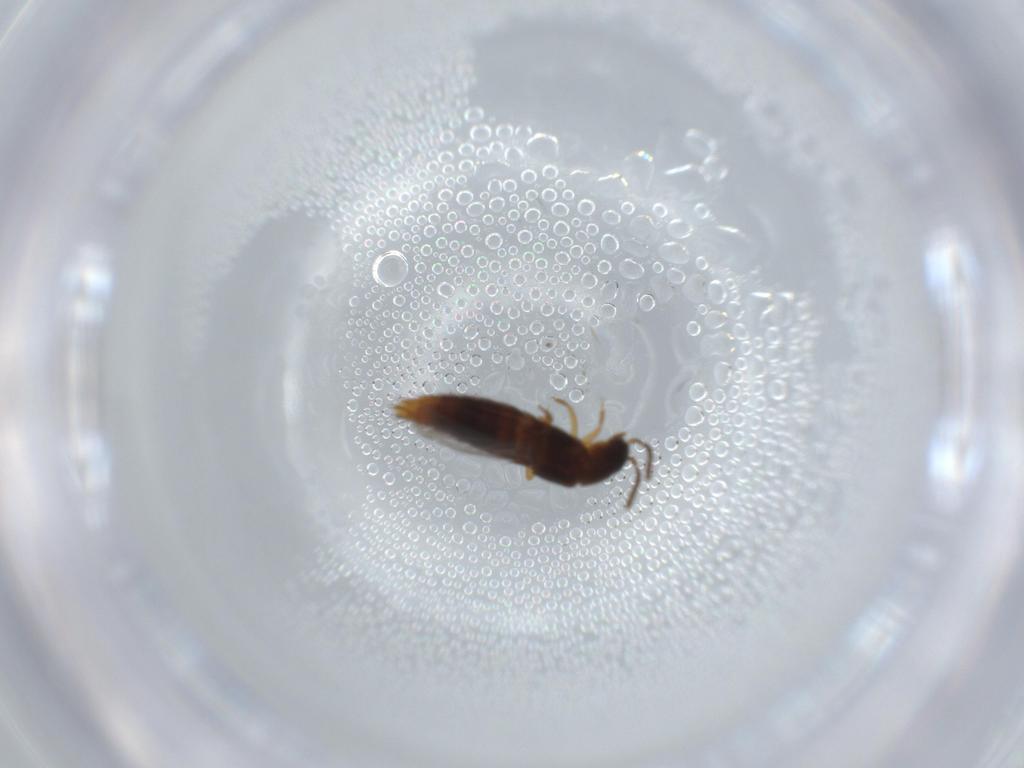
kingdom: Animalia
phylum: Arthropoda
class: Insecta
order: Coleoptera
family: Staphylinidae
